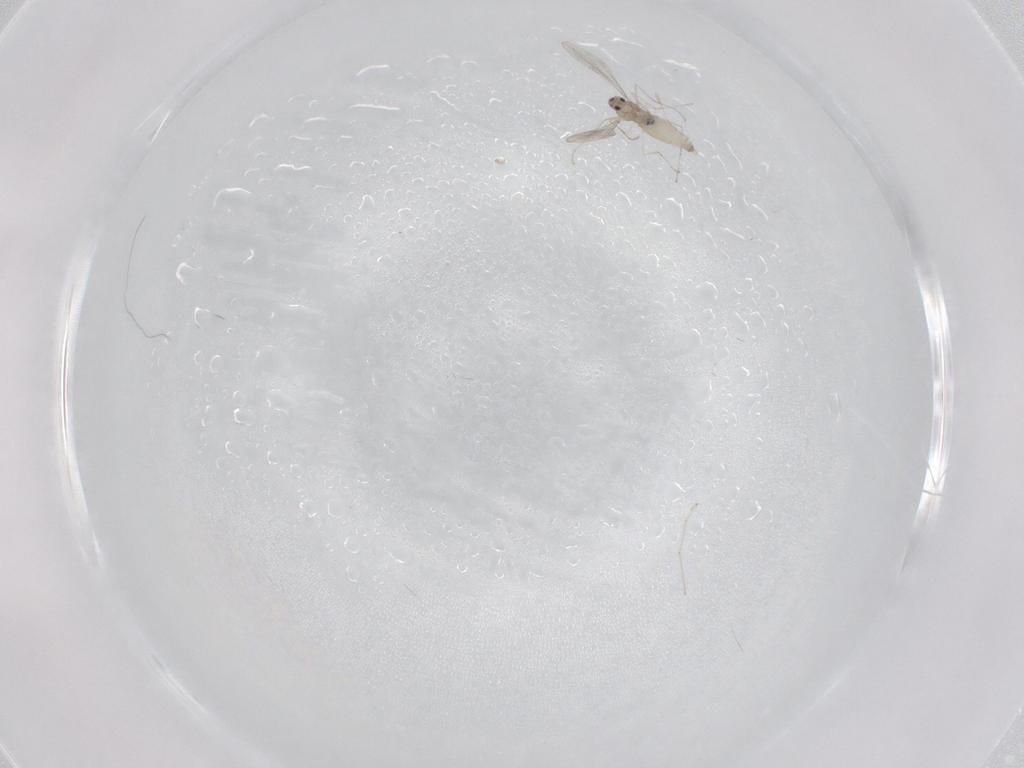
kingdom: Animalia
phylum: Arthropoda
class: Insecta
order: Diptera
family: Cecidomyiidae
